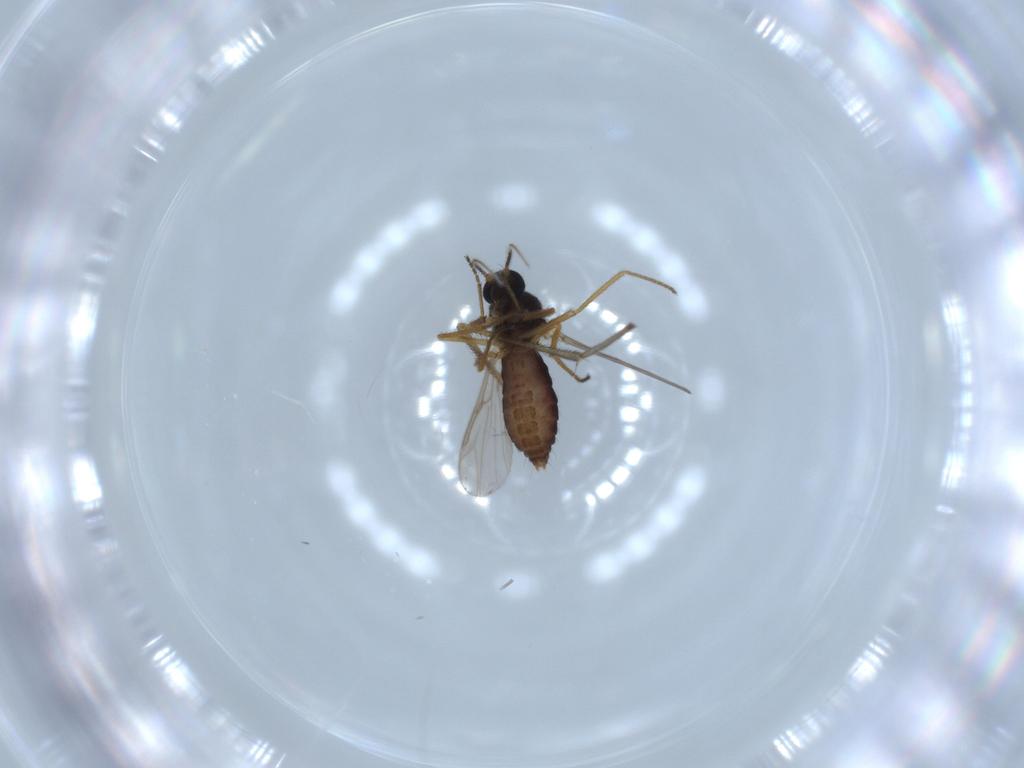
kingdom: Animalia
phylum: Arthropoda
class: Insecta
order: Diptera
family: Ceratopogonidae
